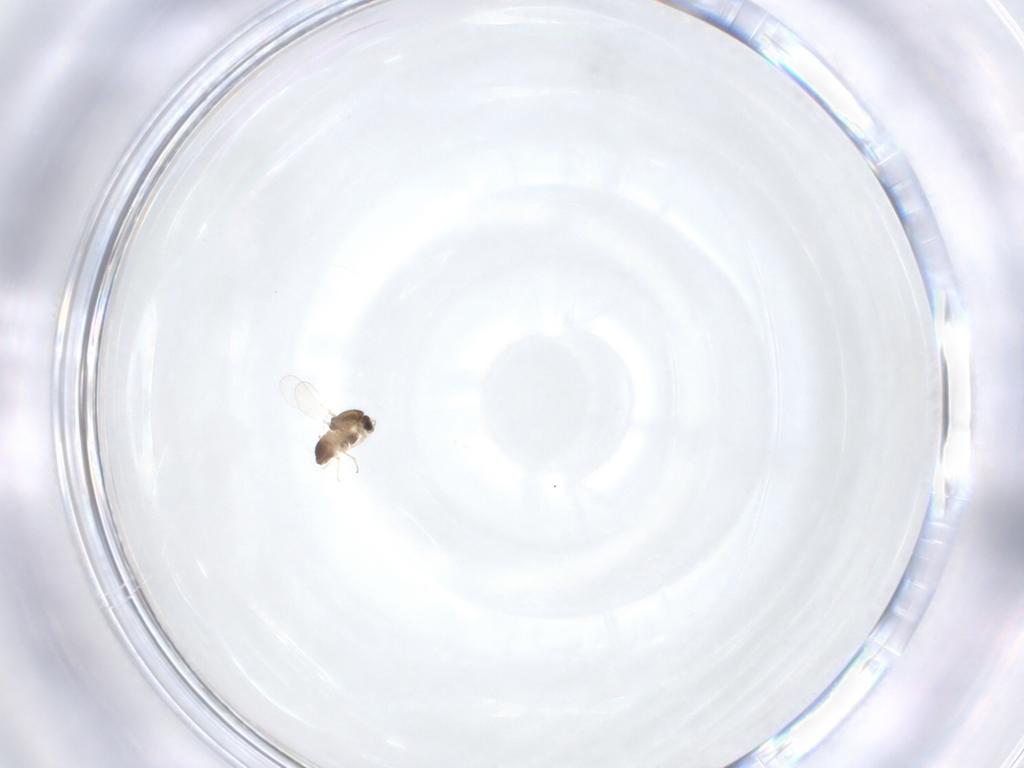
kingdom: Animalia
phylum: Arthropoda
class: Insecta
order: Diptera
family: Chironomidae
